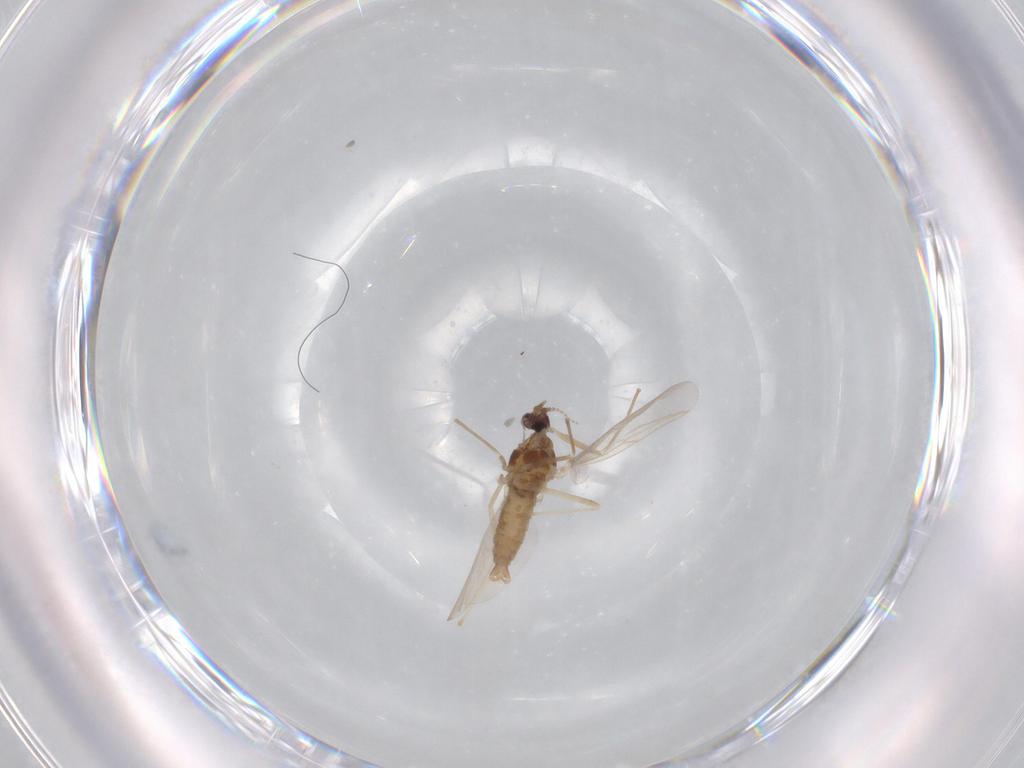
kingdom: Animalia
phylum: Arthropoda
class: Insecta
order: Diptera
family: Cecidomyiidae
